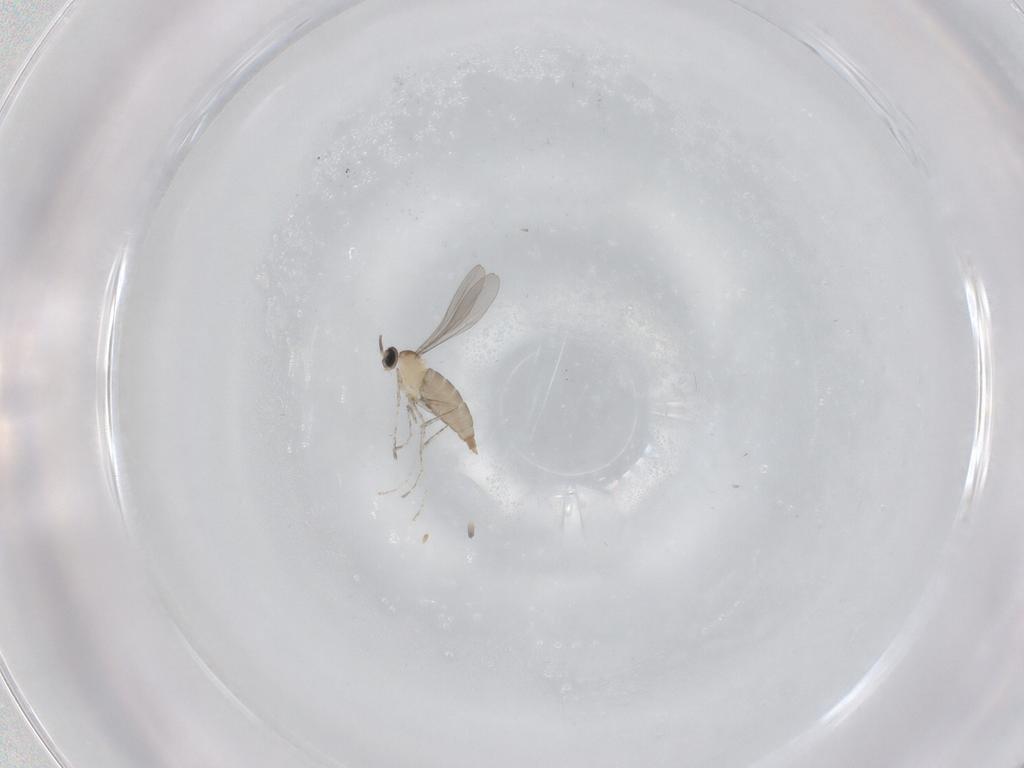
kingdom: Animalia
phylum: Arthropoda
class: Insecta
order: Diptera
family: Cecidomyiidae
